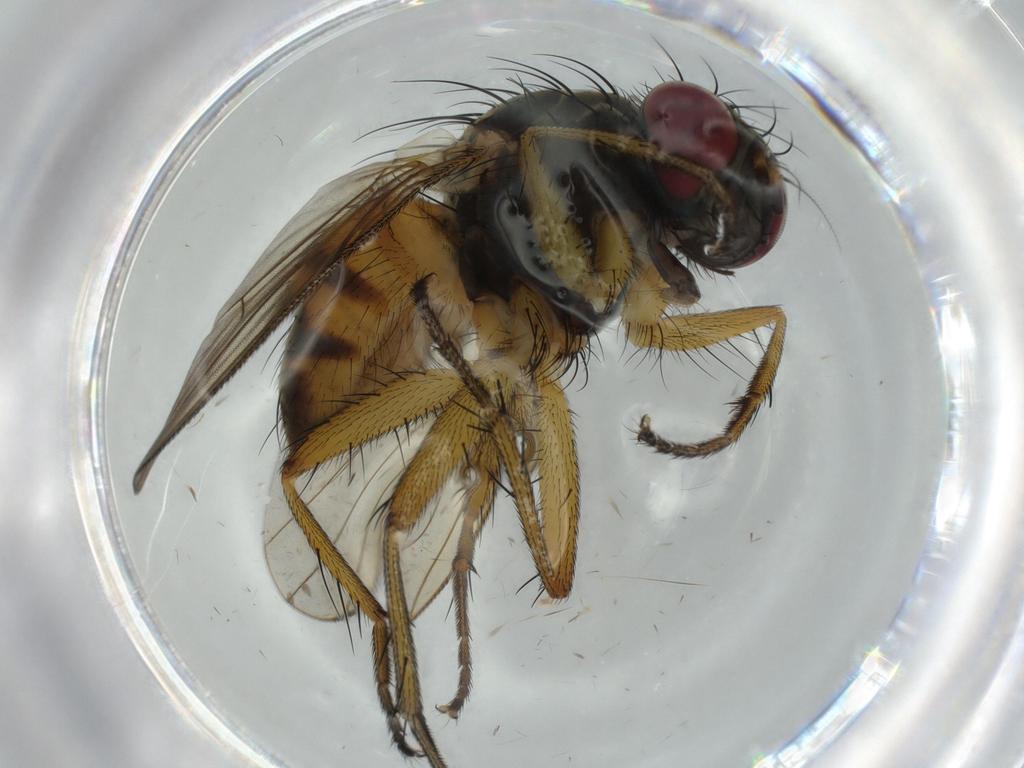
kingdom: Animalia
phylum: Arthropoda
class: Insecta
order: Diptera
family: Muscidae
